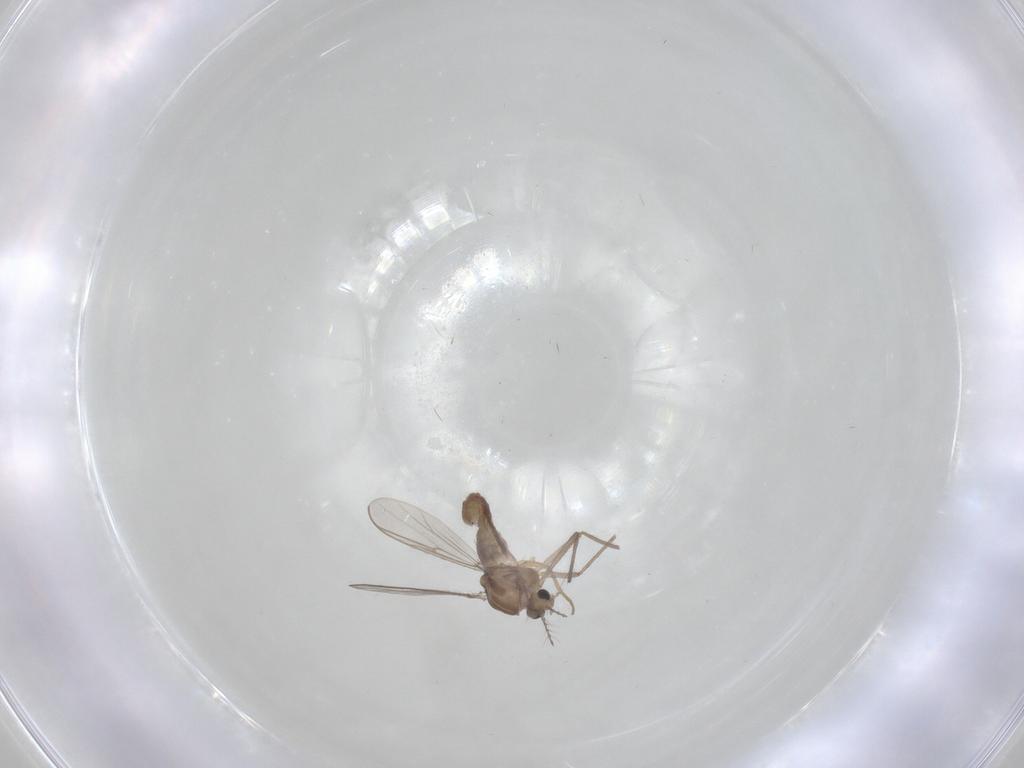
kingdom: Animalia
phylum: Arthropoda
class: Insecta
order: Diptera
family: Chironomidae
